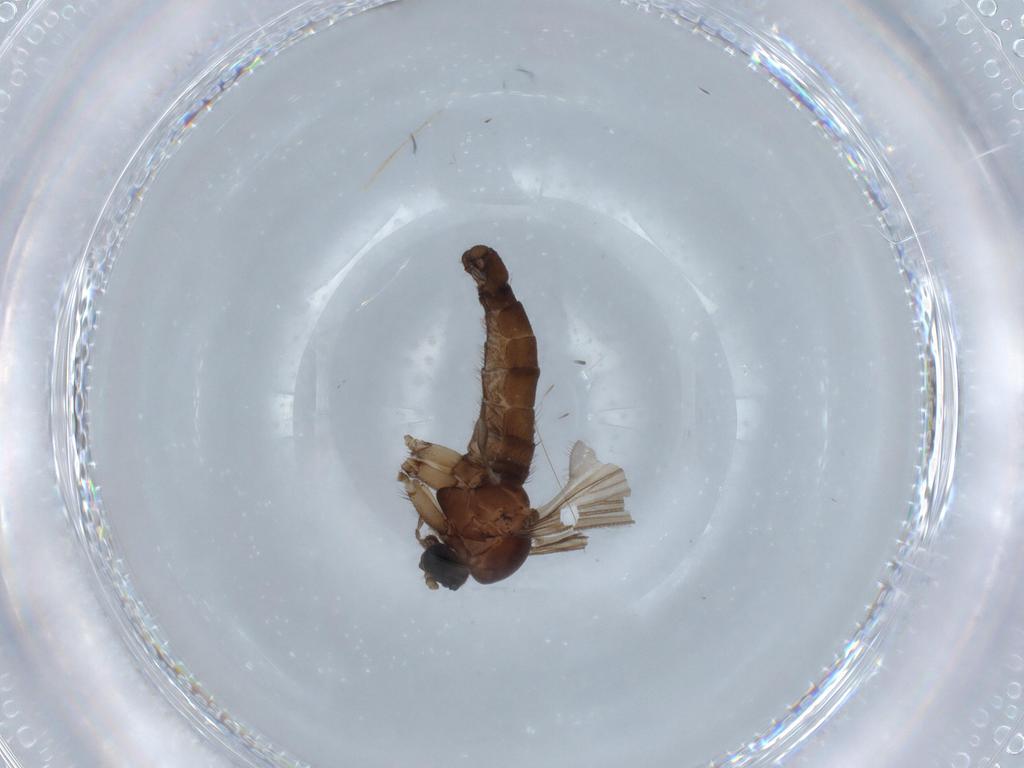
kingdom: Animalia
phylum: Arthropoda
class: Insecta
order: Diptera
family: Sciaridae
